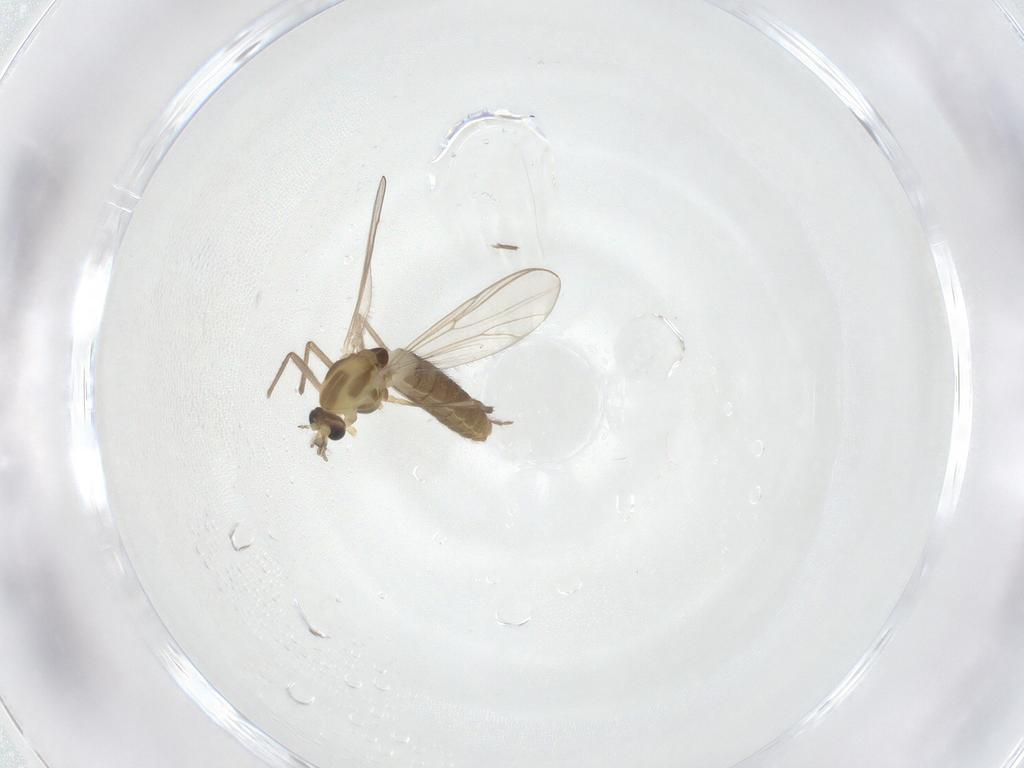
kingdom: Animalia
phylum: Arthropoda
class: Insecta
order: Diptera
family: Chironomidae
